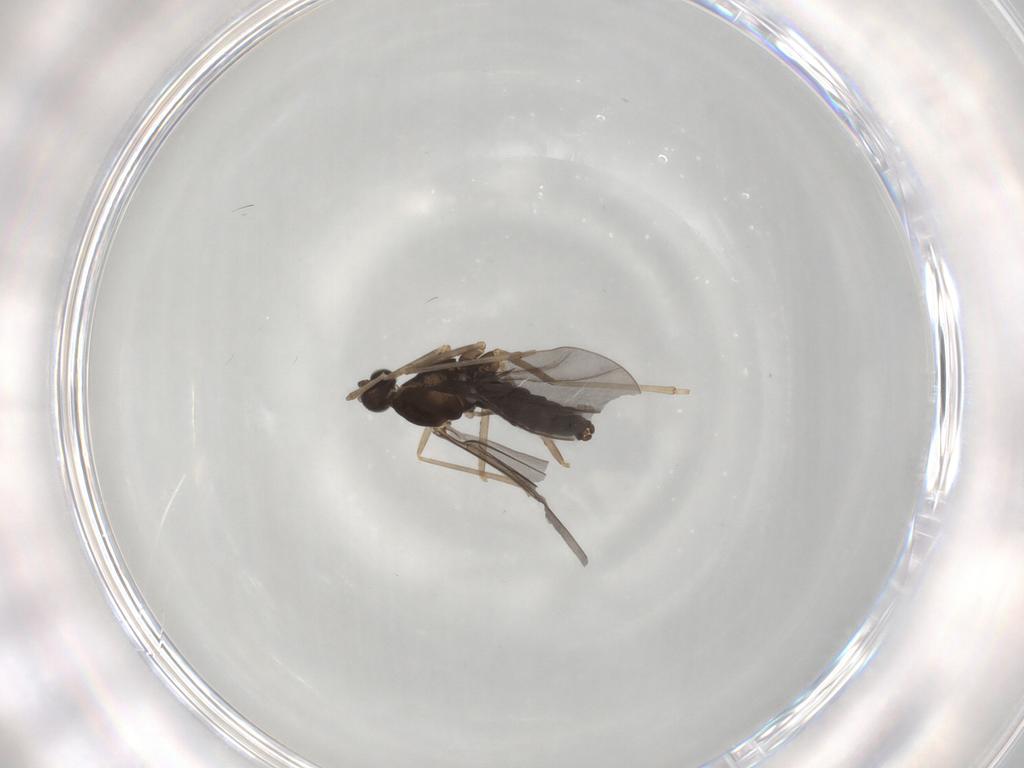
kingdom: Animalia
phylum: Arthropoda
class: Insecta
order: Diptera
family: Cecidomyiidae
